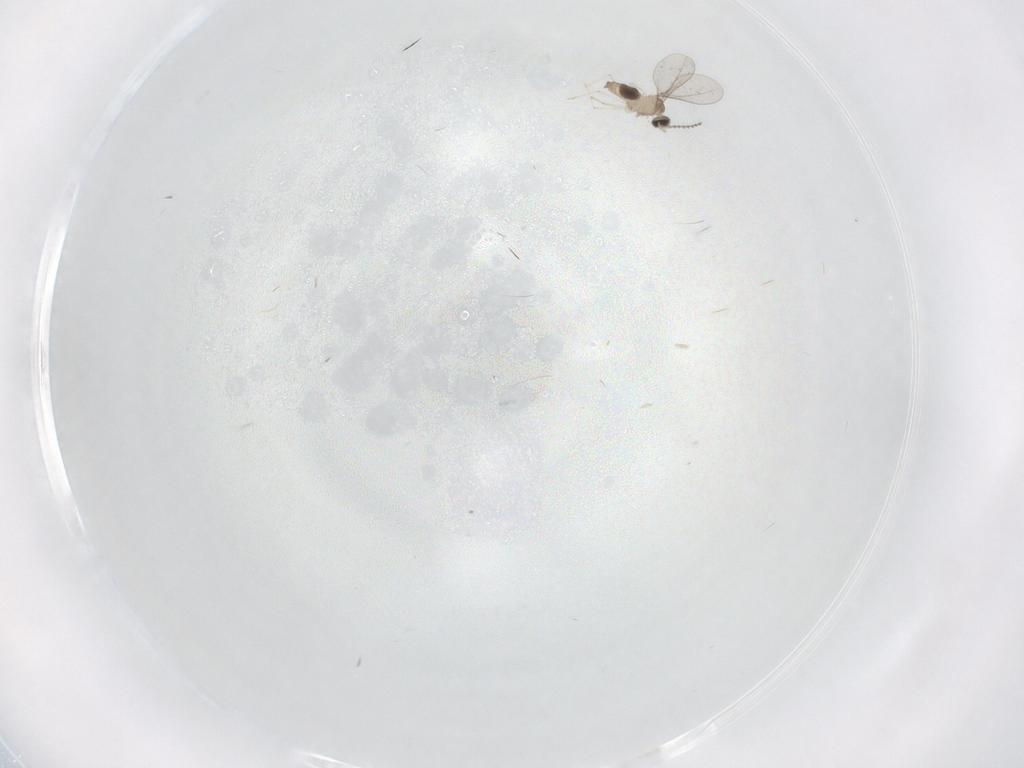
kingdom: Animalia
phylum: Arthropoda
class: Insecta
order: Diptera
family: Cecidomyiidae
